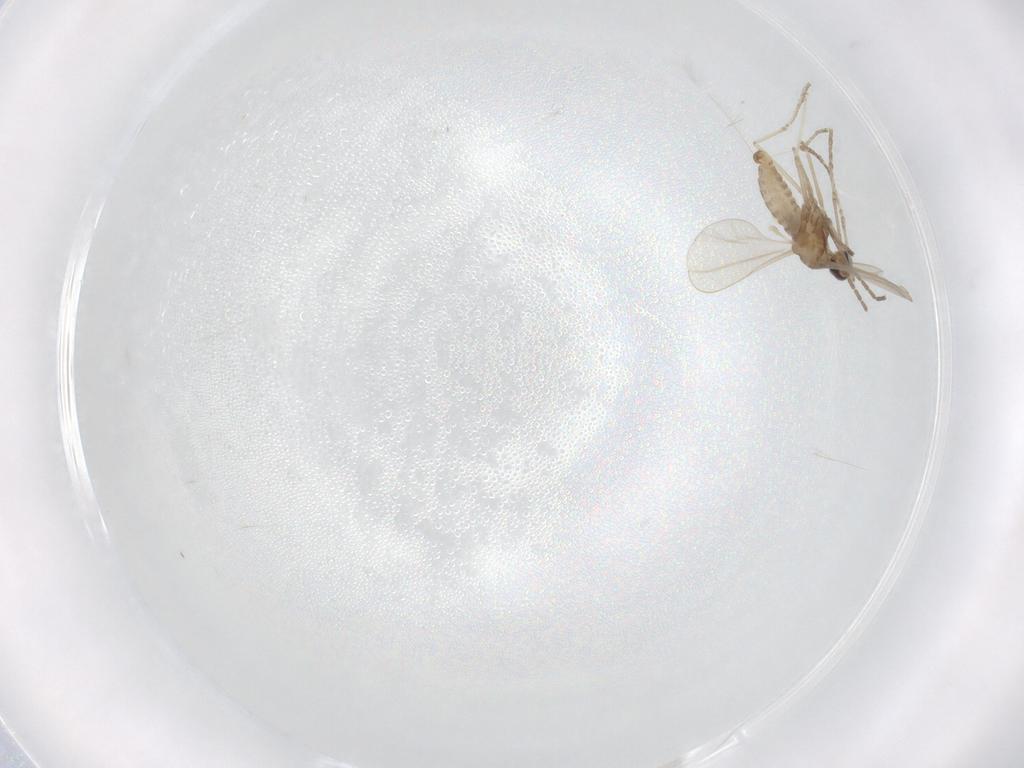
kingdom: Animalia
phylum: Arthropoda
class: Insecta
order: Diptera
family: Cecidomyiidae
